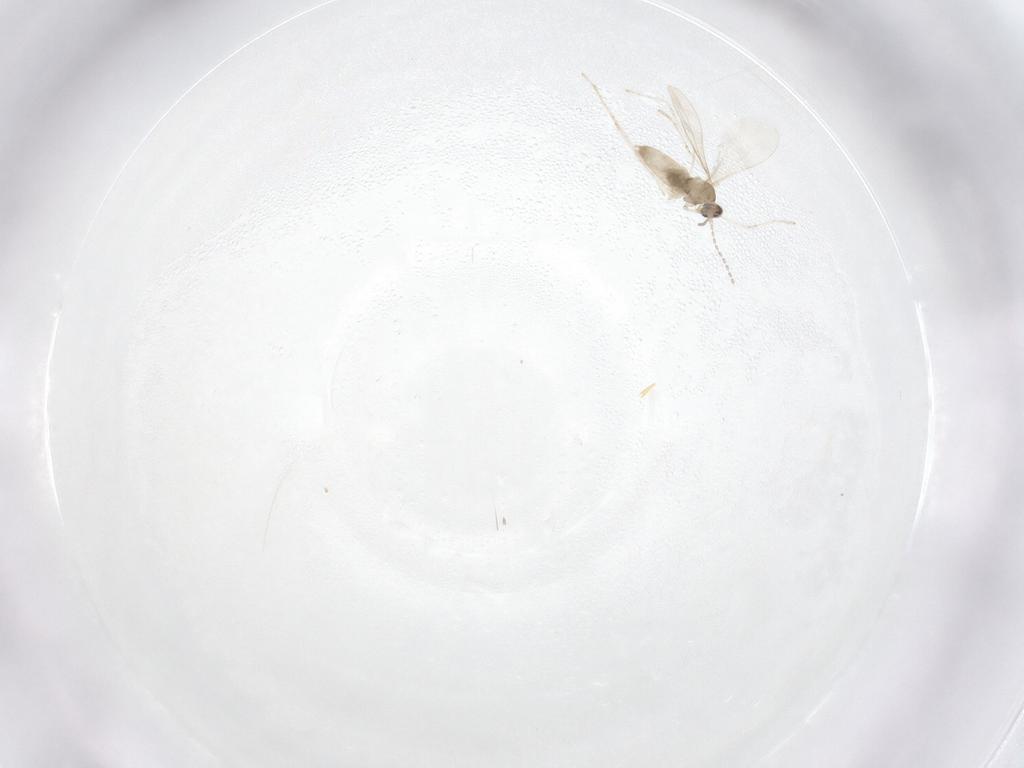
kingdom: Animalia
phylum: Arthropoda
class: Insecta
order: Diptera
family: Cecidomyiidae
